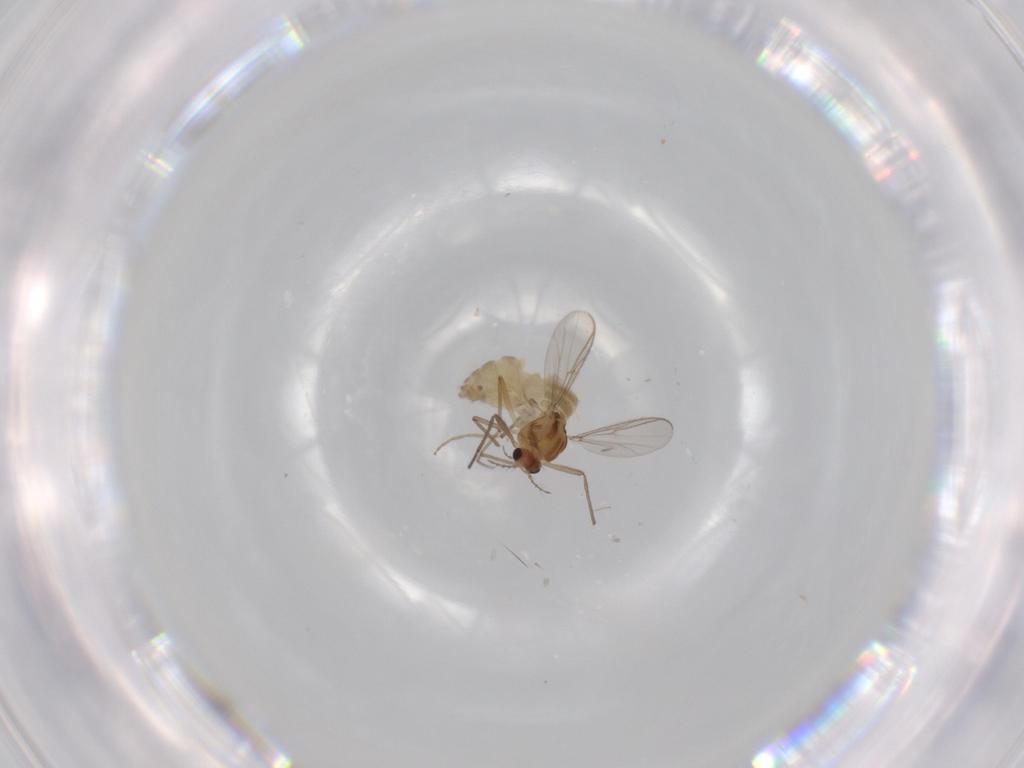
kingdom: Animalia
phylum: Arthropoda
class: Insecta
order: Diptera
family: Chironomidae
